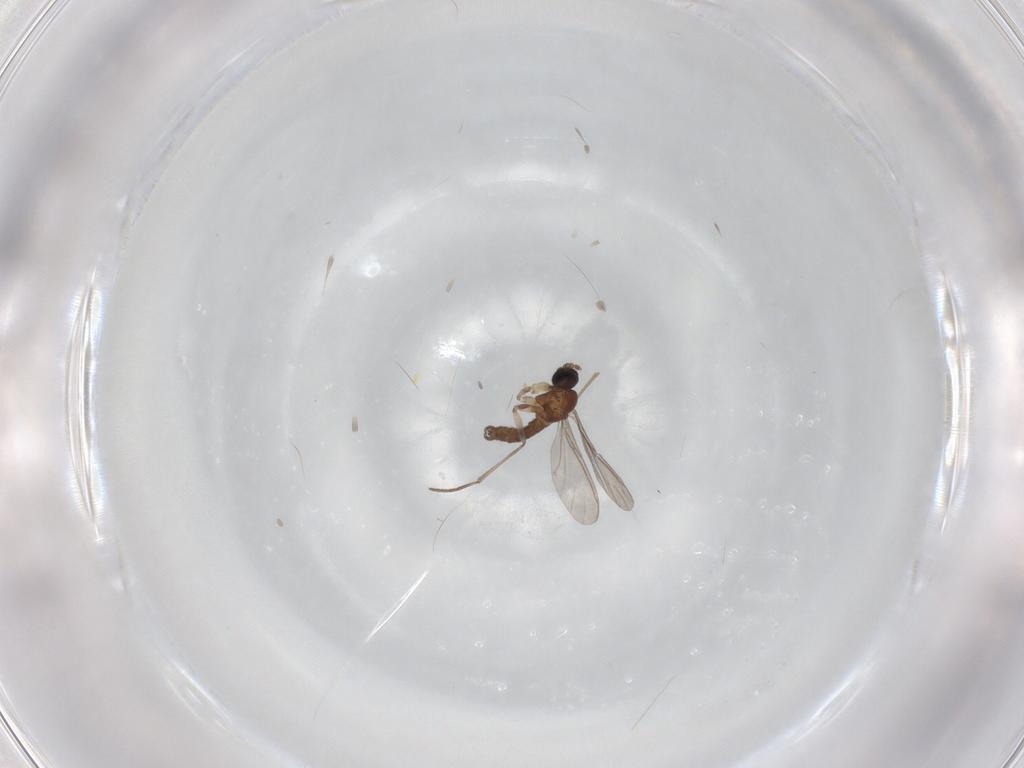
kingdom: Animalia
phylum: Arthropoda
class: Insecta
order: Diptera
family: Sciaridae
